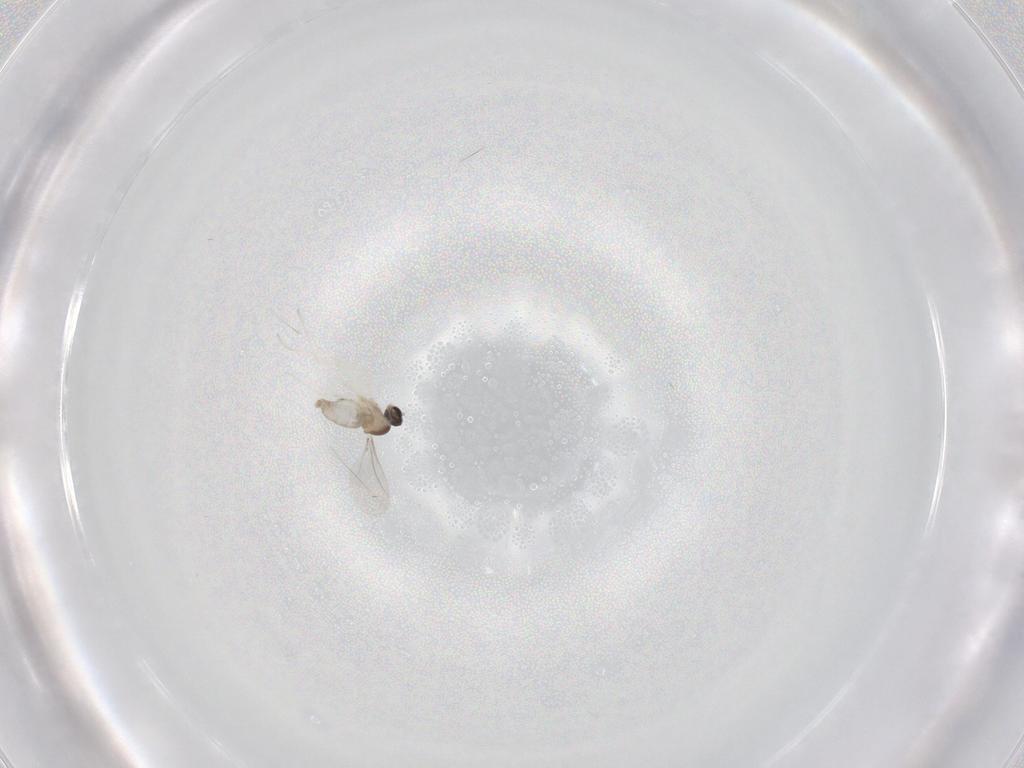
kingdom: Animalia
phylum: Arthropoda
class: Insecta
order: Diptera
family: Cecidomyiidae
